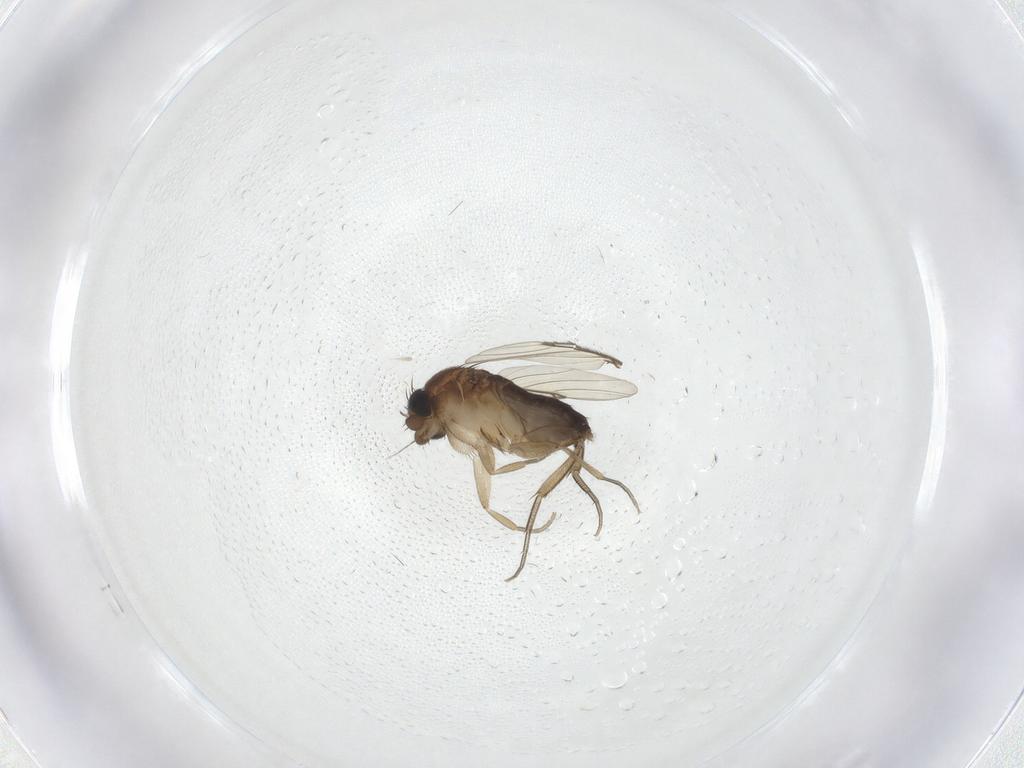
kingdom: Animalia
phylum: Arthropoda
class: Insecta
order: Diptera
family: Phoridae
